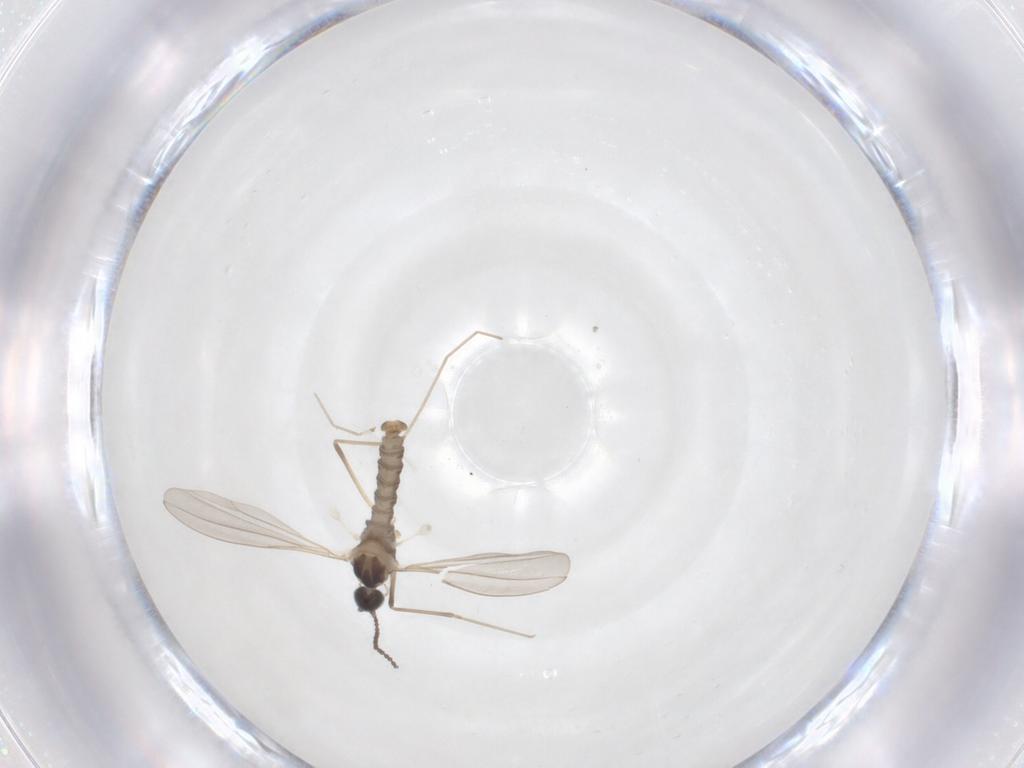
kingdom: Animalia
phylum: Arthropoda
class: Insecta
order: Diptera
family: Cecidomyiidae
